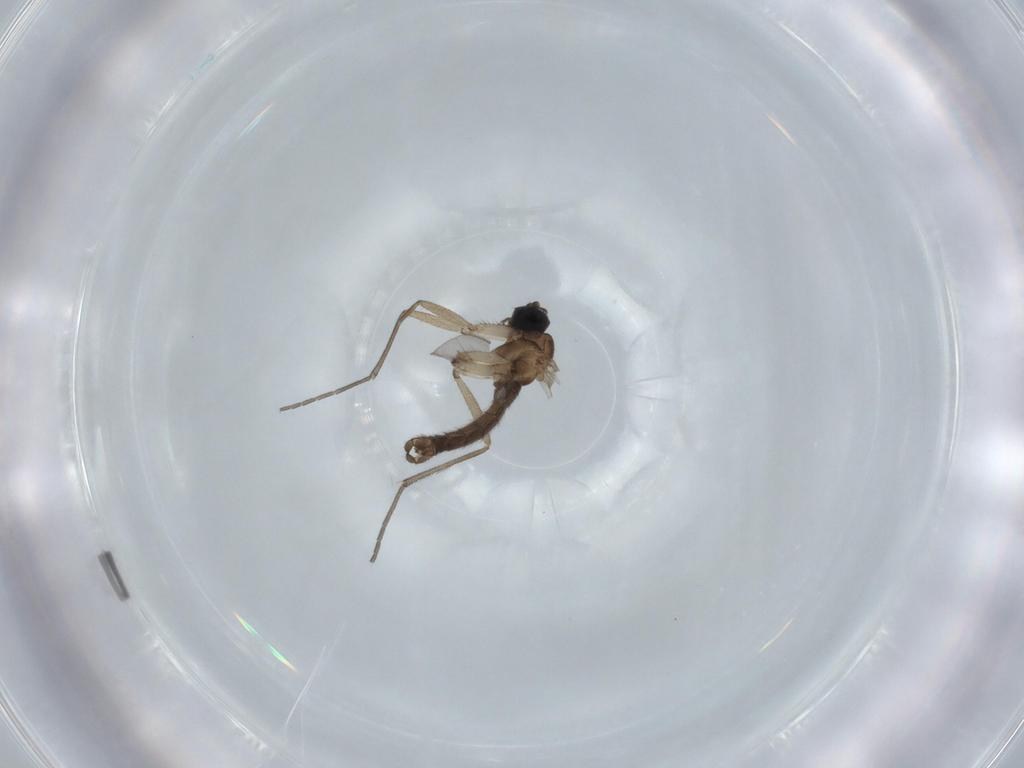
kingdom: Animalia
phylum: Arthropoda
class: Insecta
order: Diptera
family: Sciaridae
